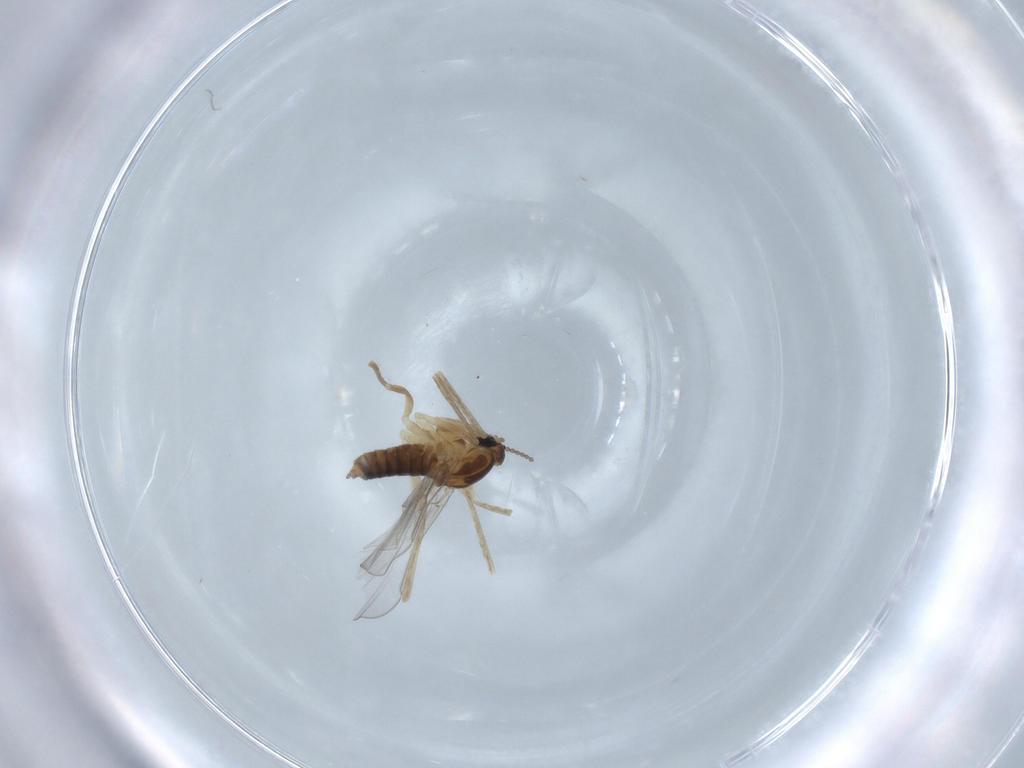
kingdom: Animalia
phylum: Arthropoda
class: Insecta
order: Diptera
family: Cecidomyiidae
